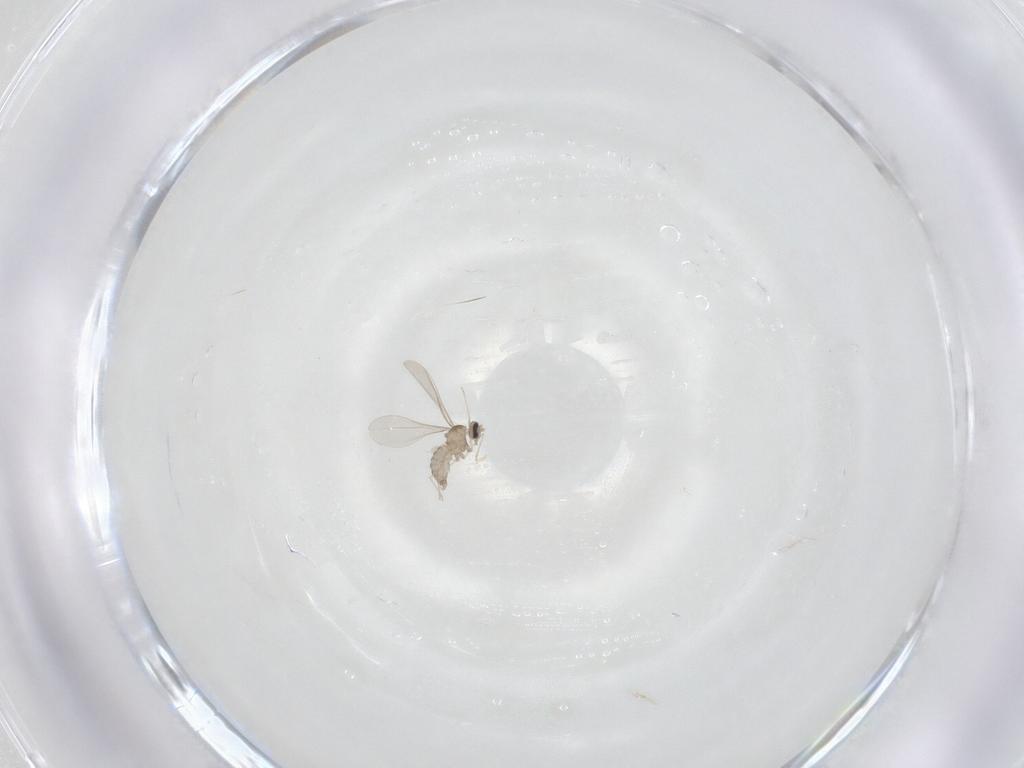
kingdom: Animalia
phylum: Arthropoda
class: Insecta
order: Diptera
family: Cecidomyiidae
